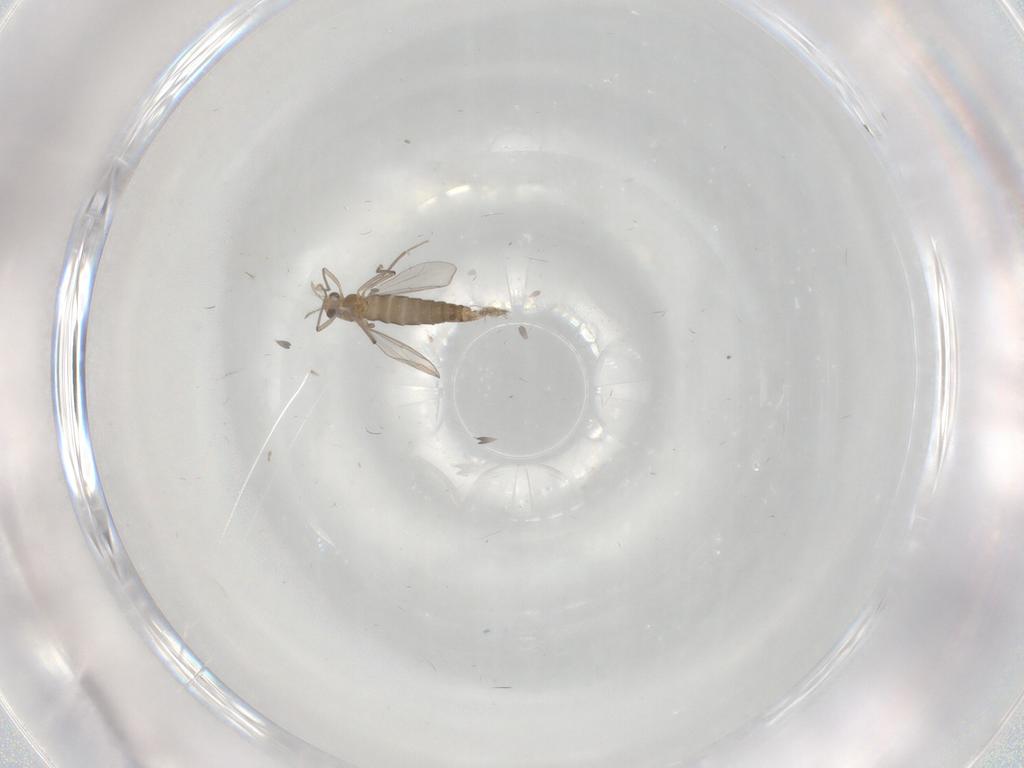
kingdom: Animalia
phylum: Arthropoda
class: Insecta
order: Diptera
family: Chironomidae
